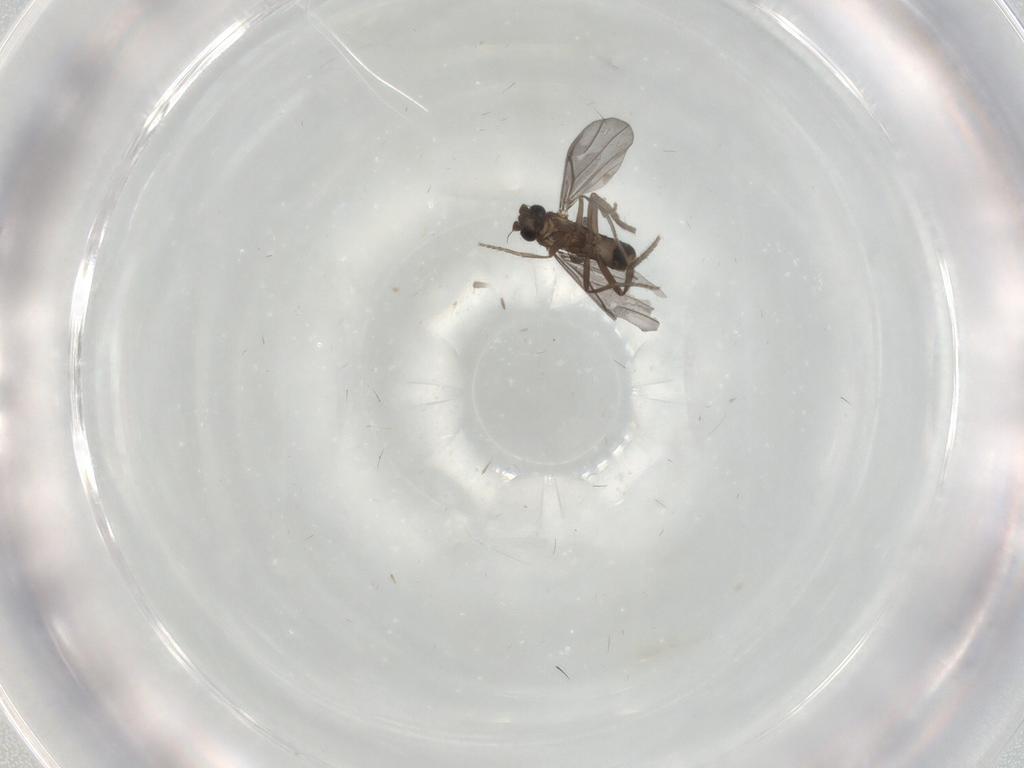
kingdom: Animalia
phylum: Arthropoda
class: Insecta
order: Diptera
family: Phoridae
